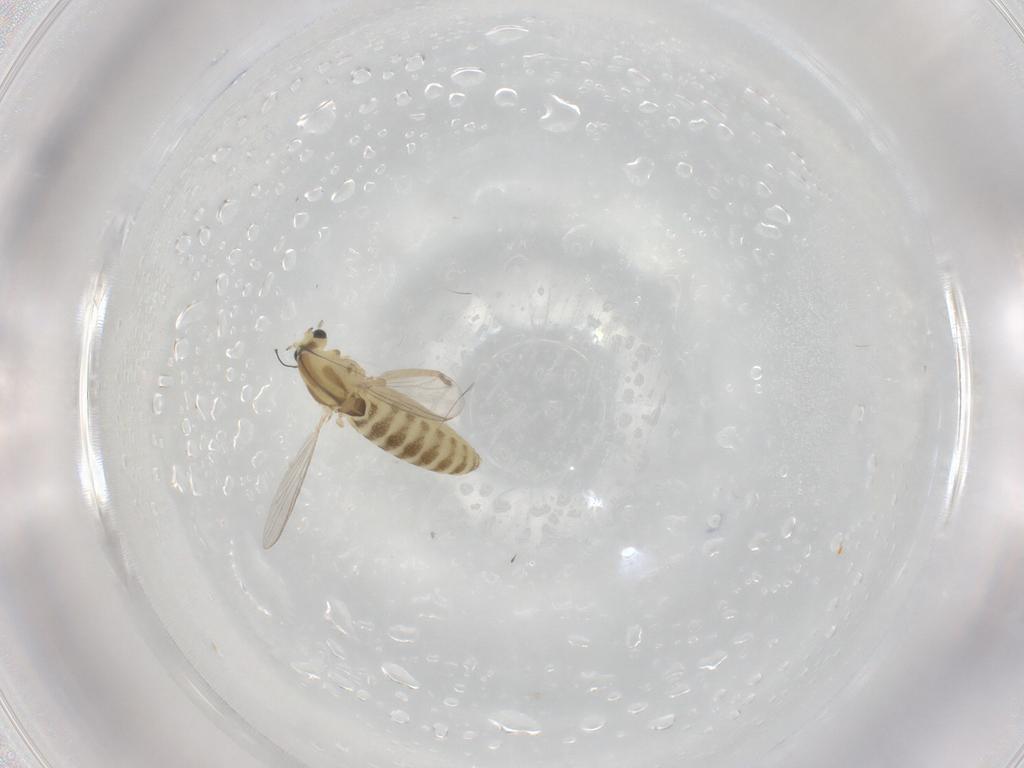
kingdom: Animalia
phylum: Arthropoda
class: Insecta
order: Diptera
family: Chironomidae
